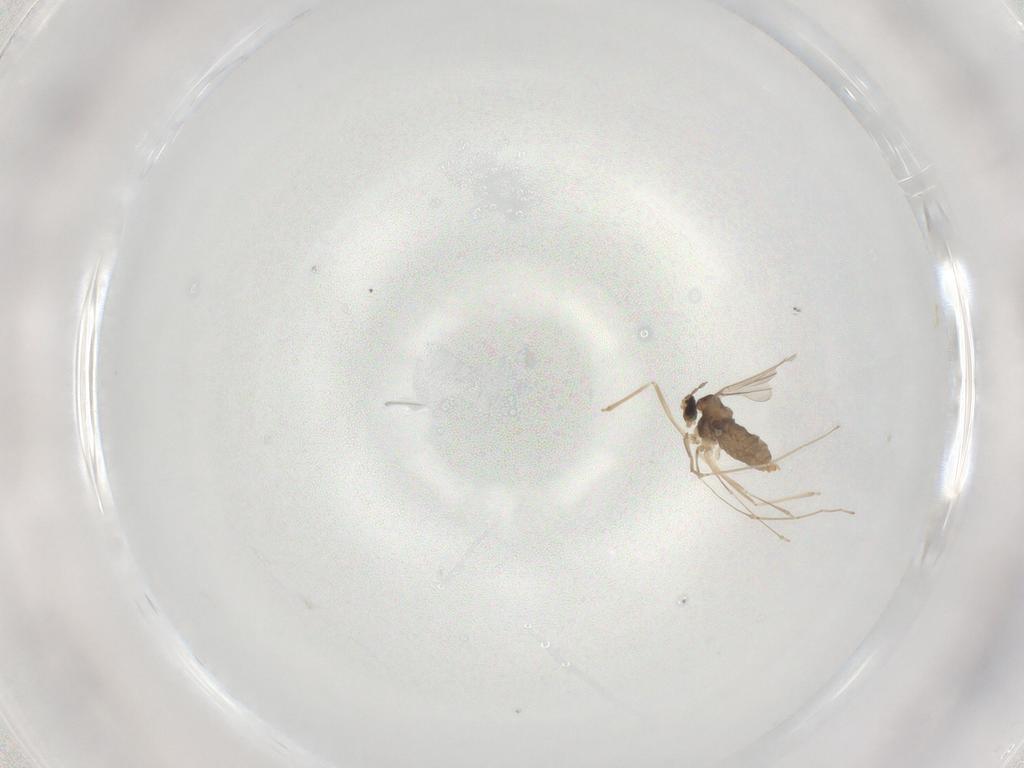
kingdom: Animalia
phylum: Arthropoda
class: Insecta
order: Diptera
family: Cecidomyiidae
